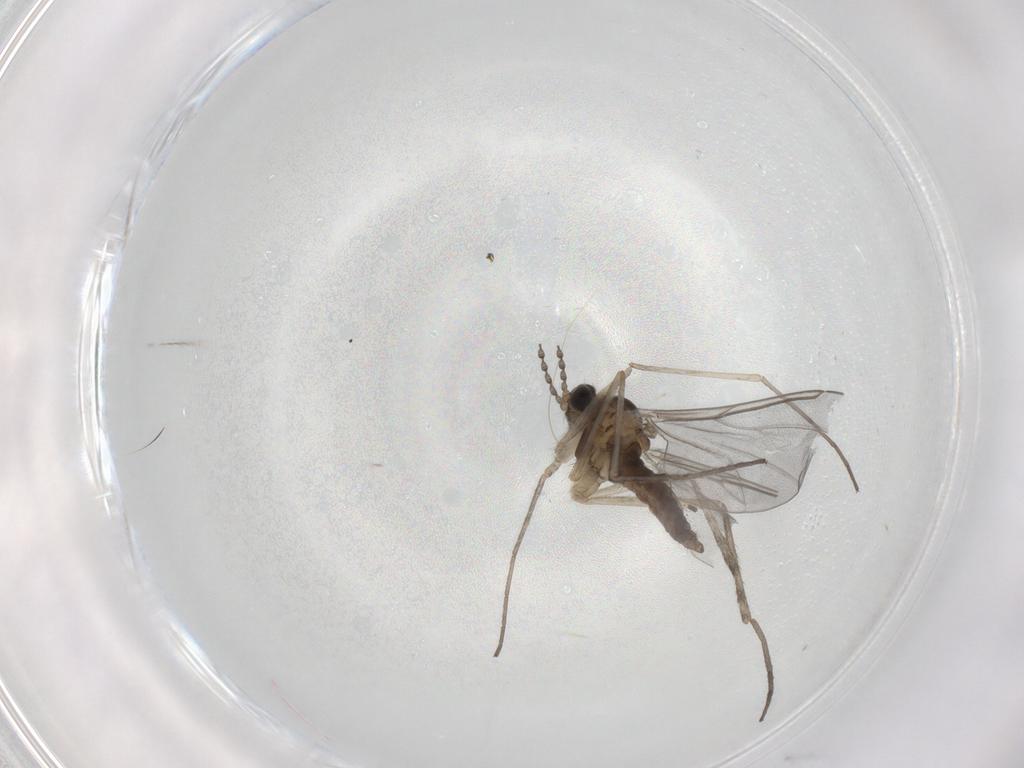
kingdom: Animalia
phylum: Arthropoda
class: Insecta
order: Diptera
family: Cecidomyiidae
